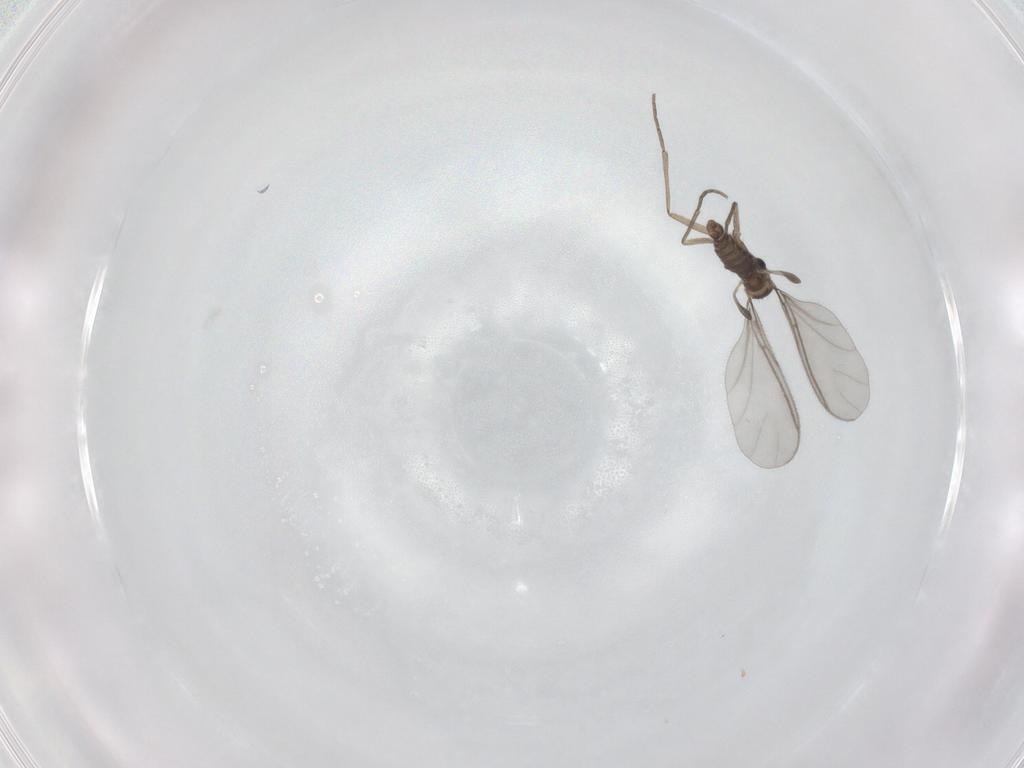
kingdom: Animalia
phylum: Arthropoda
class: Insecta
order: Diptera
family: Sciaridae
